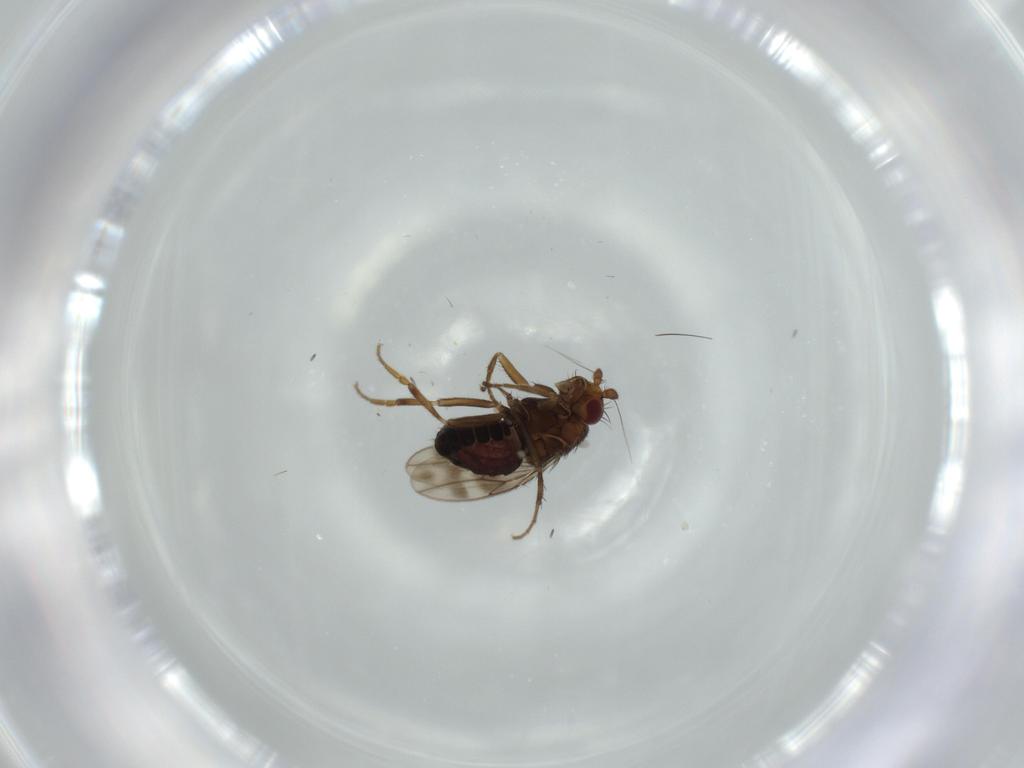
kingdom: Animalia
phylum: Arthropoda
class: Insecta
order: Diptera
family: Sphaeroceridae
